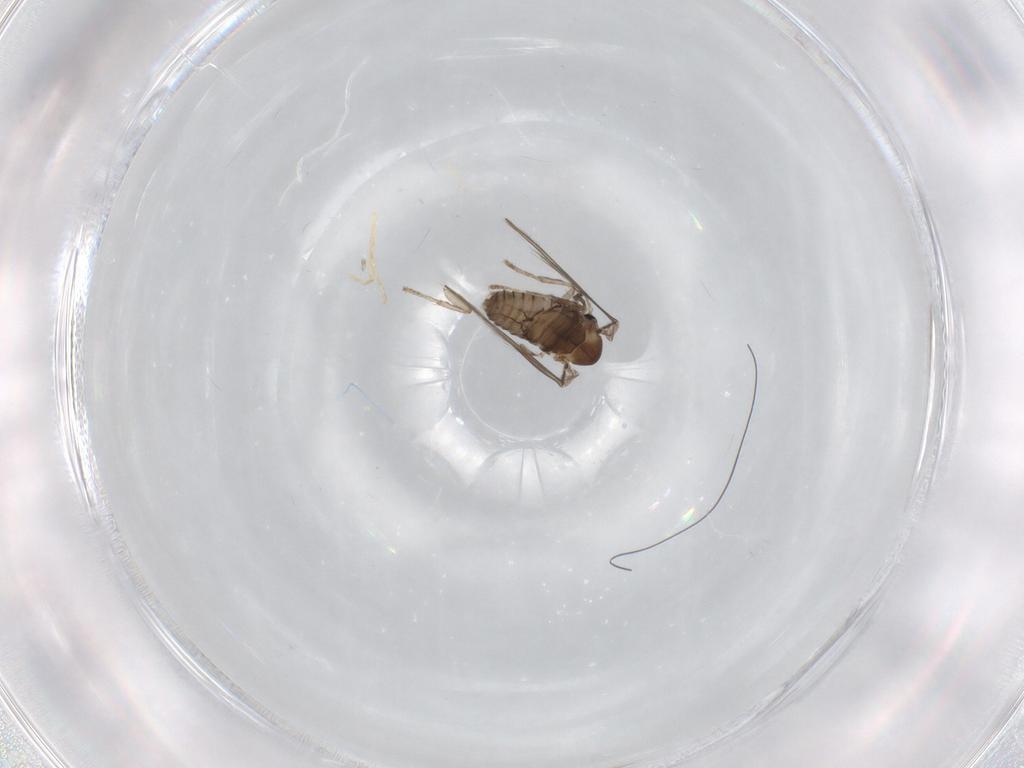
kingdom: Animalia
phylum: Arthropoda
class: Insecta
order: Diptera
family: Psychodidae
